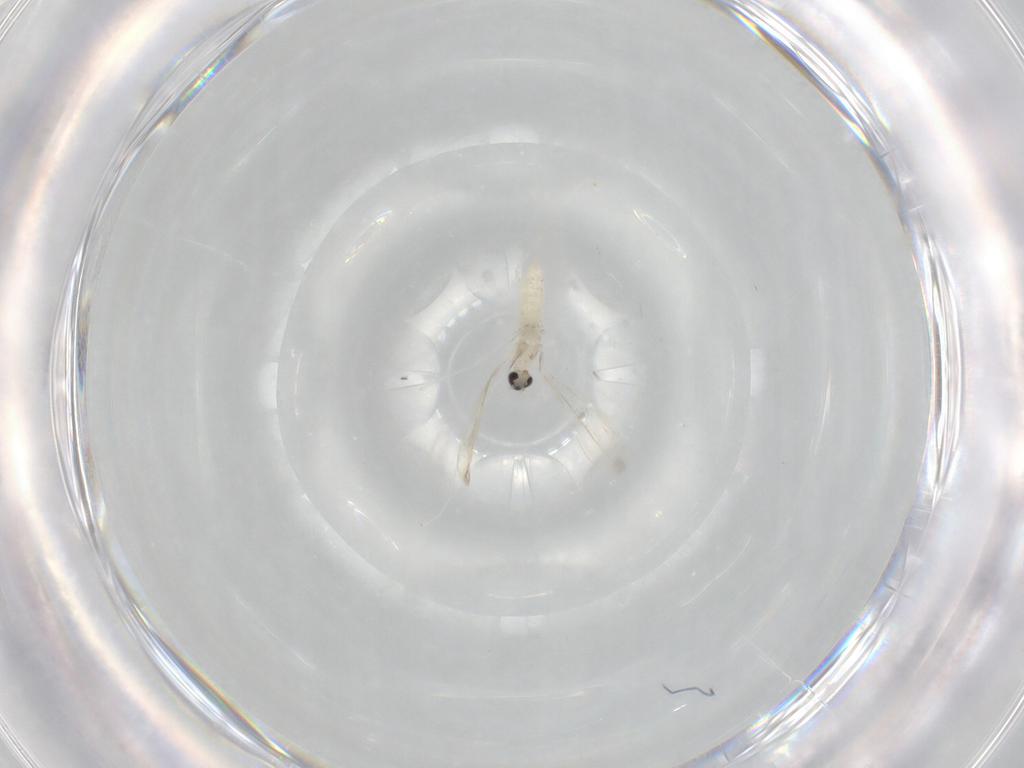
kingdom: Animalia
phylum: Arthropoda
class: Insecta
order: Diptera
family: Cecidomyiidae
